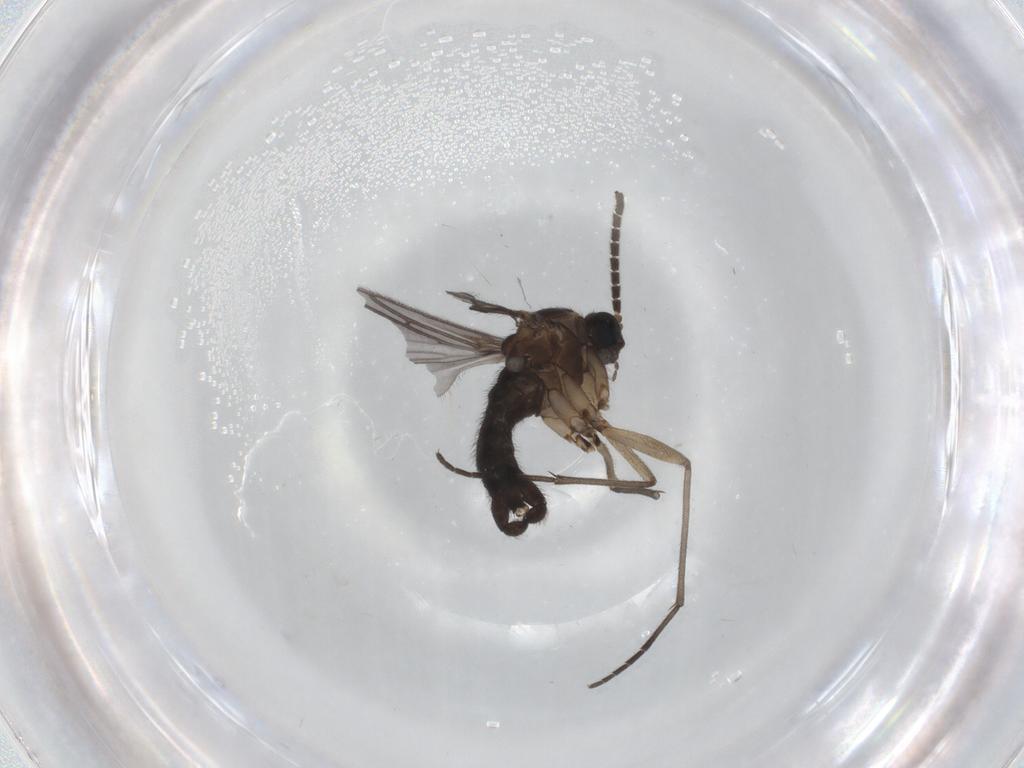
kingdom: Animalia
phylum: Arthropoda
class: Insecta
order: Diptera
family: Sciaridae
